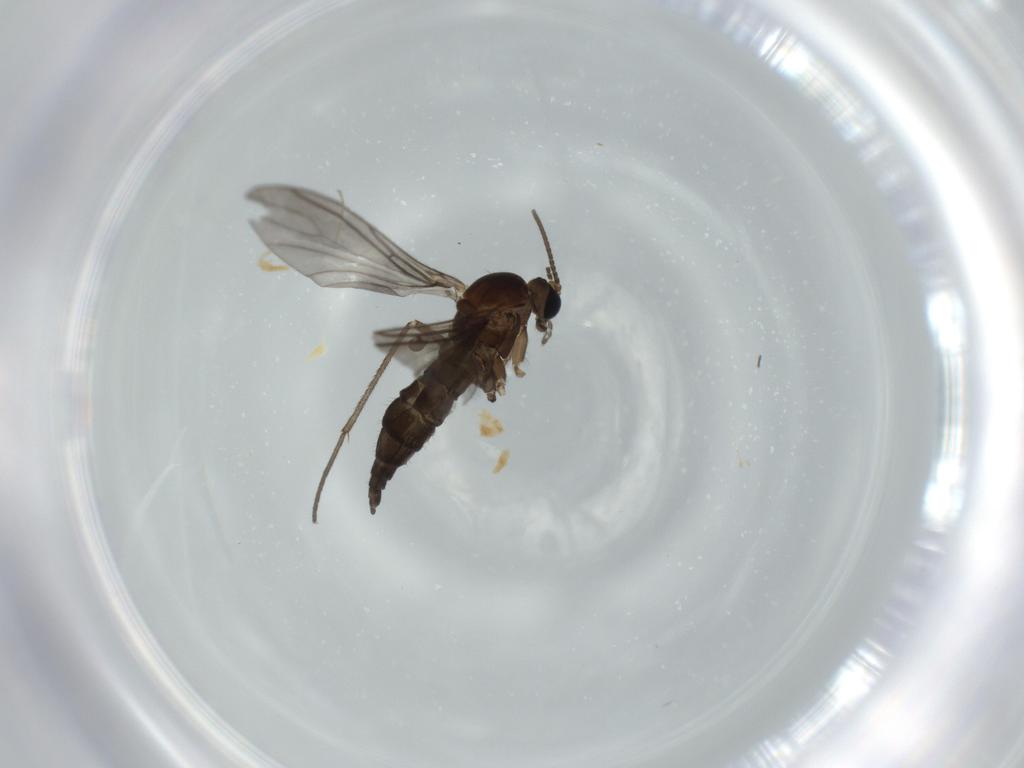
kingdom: Animalia
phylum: Arthropoda
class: Insecta
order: Diptera
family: Sciaridae
